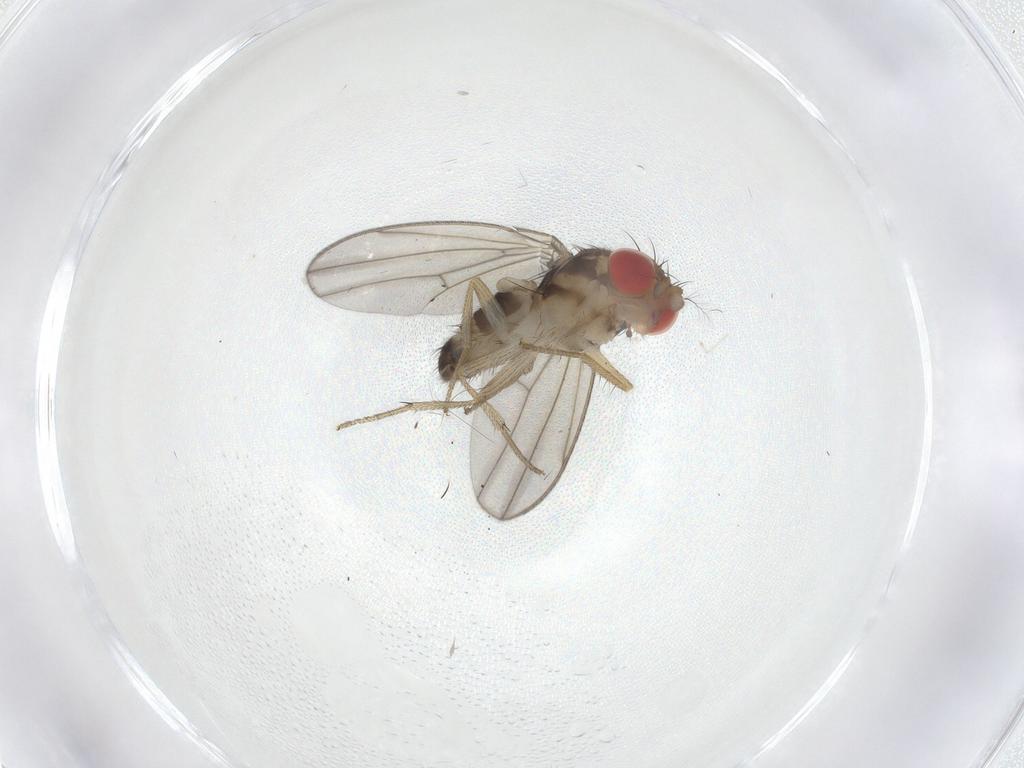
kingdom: Animalia
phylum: Arthropoda
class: Insecta
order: Diptera
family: Drosophilidae
